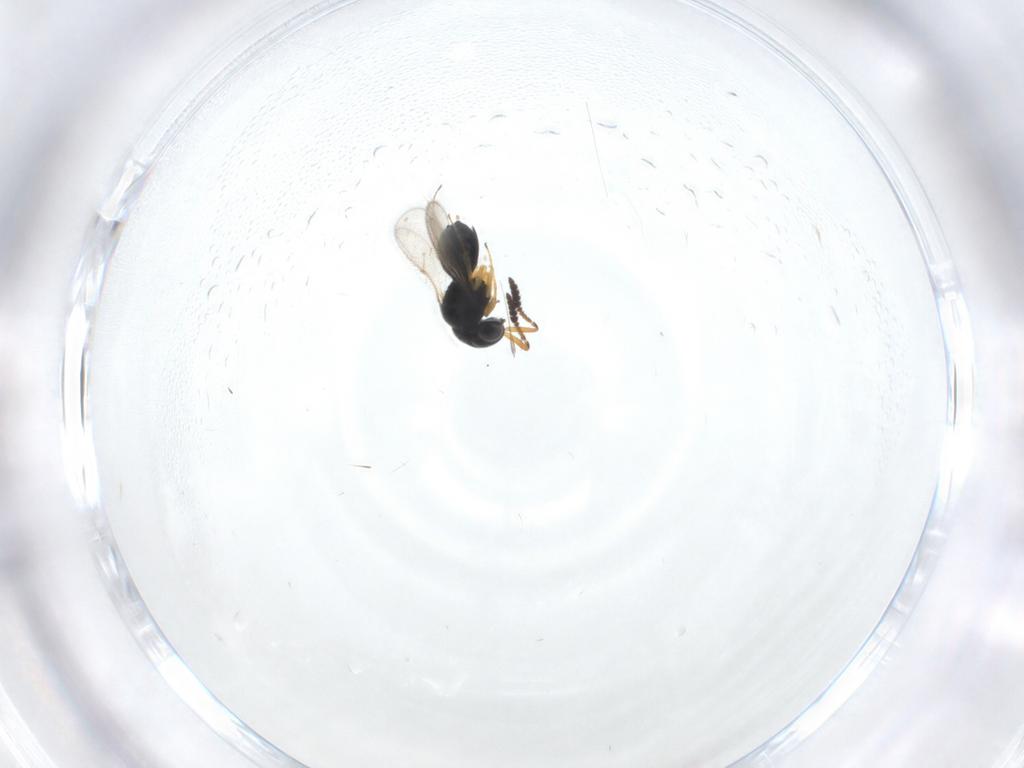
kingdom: Animalia
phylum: Arthropoda
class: Insecta
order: Hymenoptera
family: Scelionidae
